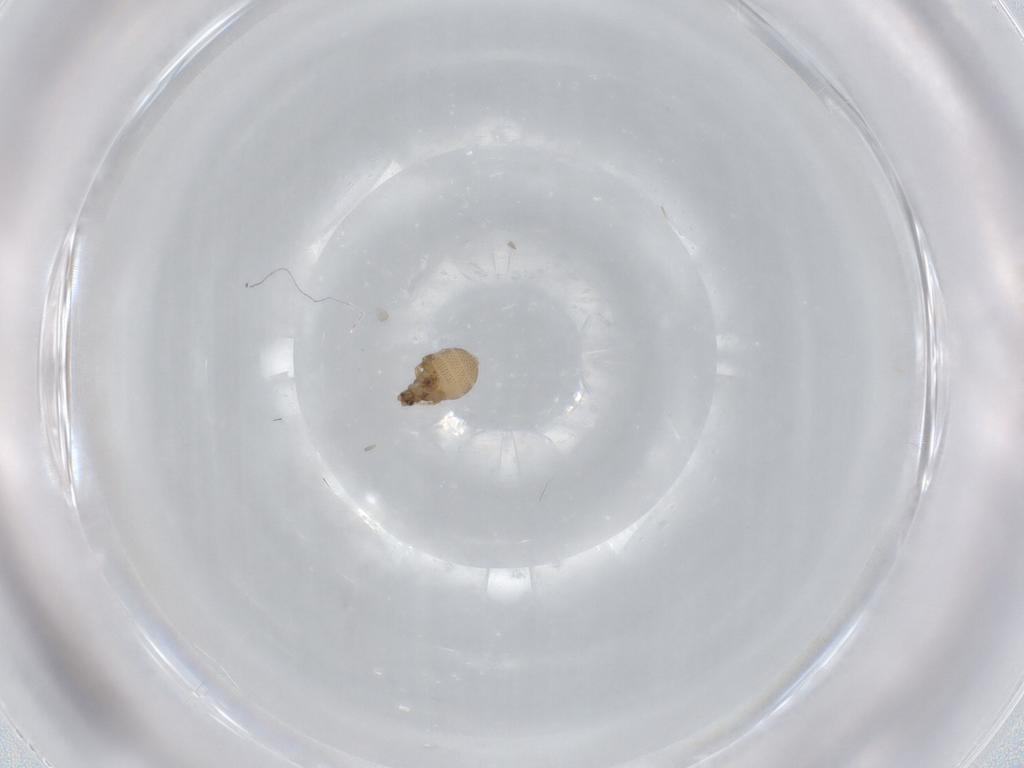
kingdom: Animalia
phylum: Arthropoda
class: Insecta
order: Diptera
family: Phoridae
